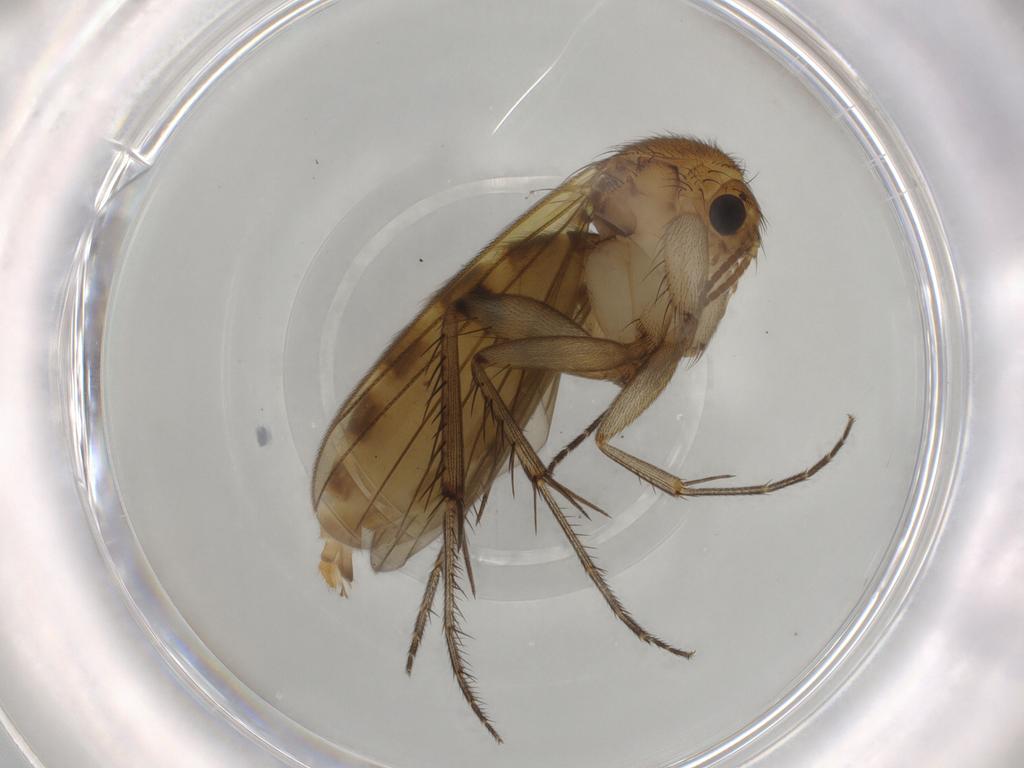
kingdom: Animalia
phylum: Arthropoda
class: Insecta
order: Diptera
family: Mycetophilidae
